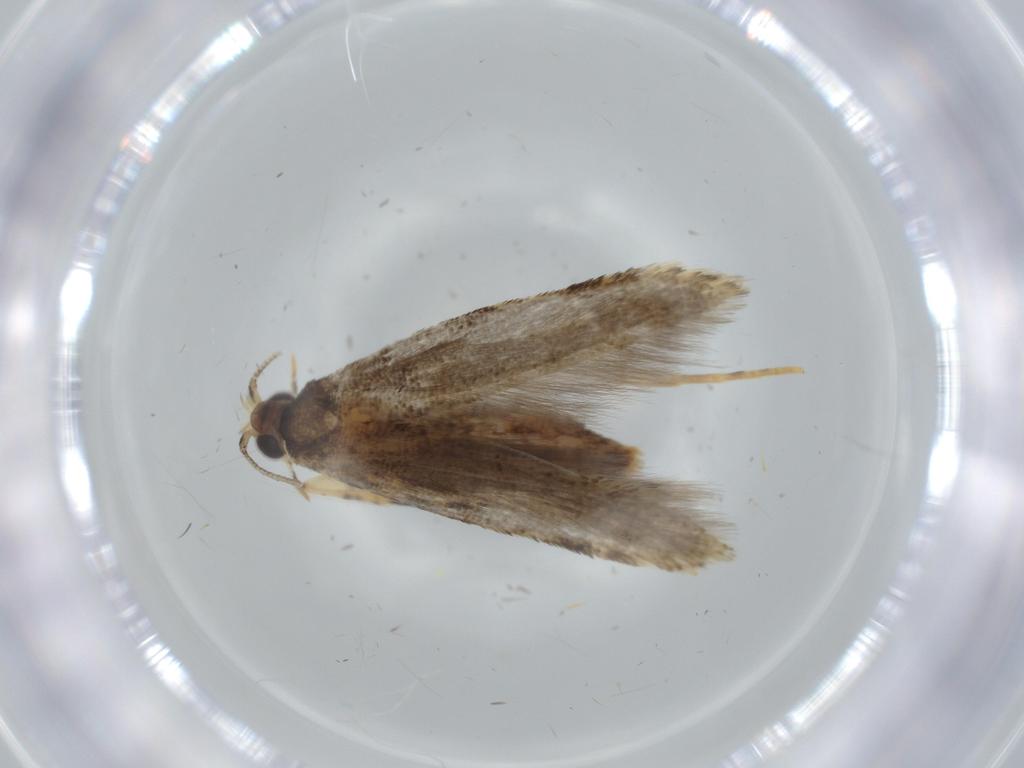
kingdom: Animalia
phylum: Arthropoda
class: Insecta
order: Lepidoptera
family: Tineidae
